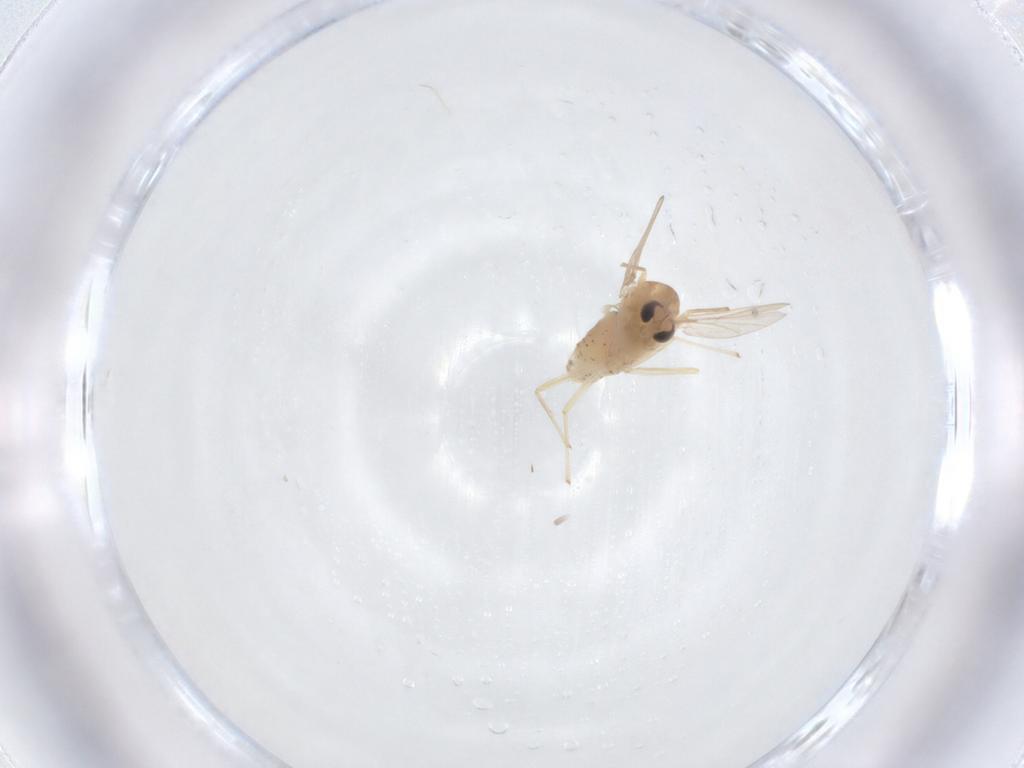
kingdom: Animalia
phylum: Arthropoda
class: Insecta
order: Diptera
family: Chironomidae
